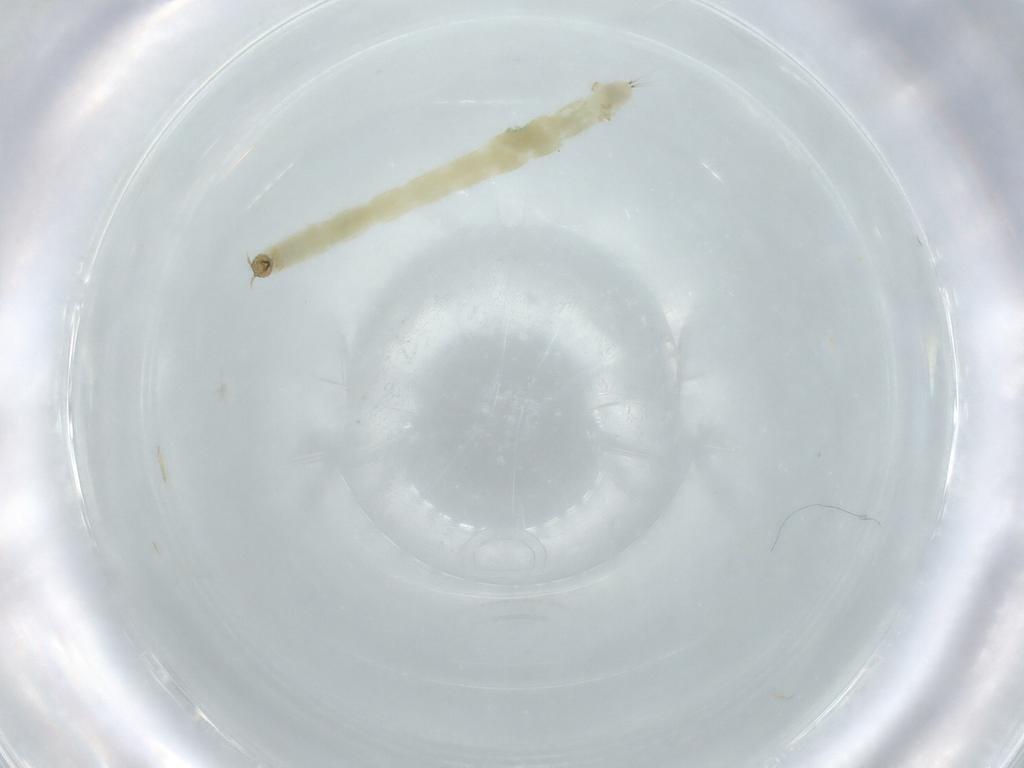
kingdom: Animalia
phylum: Arthropoda
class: Insecta
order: Diptera
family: Chironomidae
